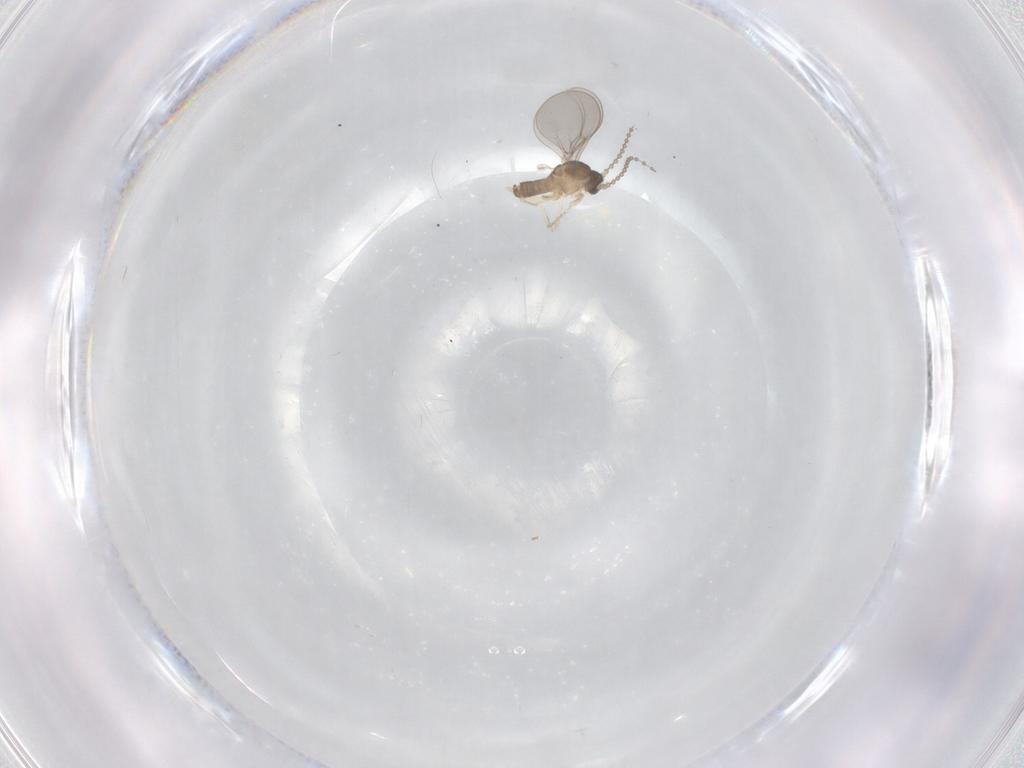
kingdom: Animalia
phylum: Arthropoda
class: Insecta
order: Diptera
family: Cecidomyiidae
